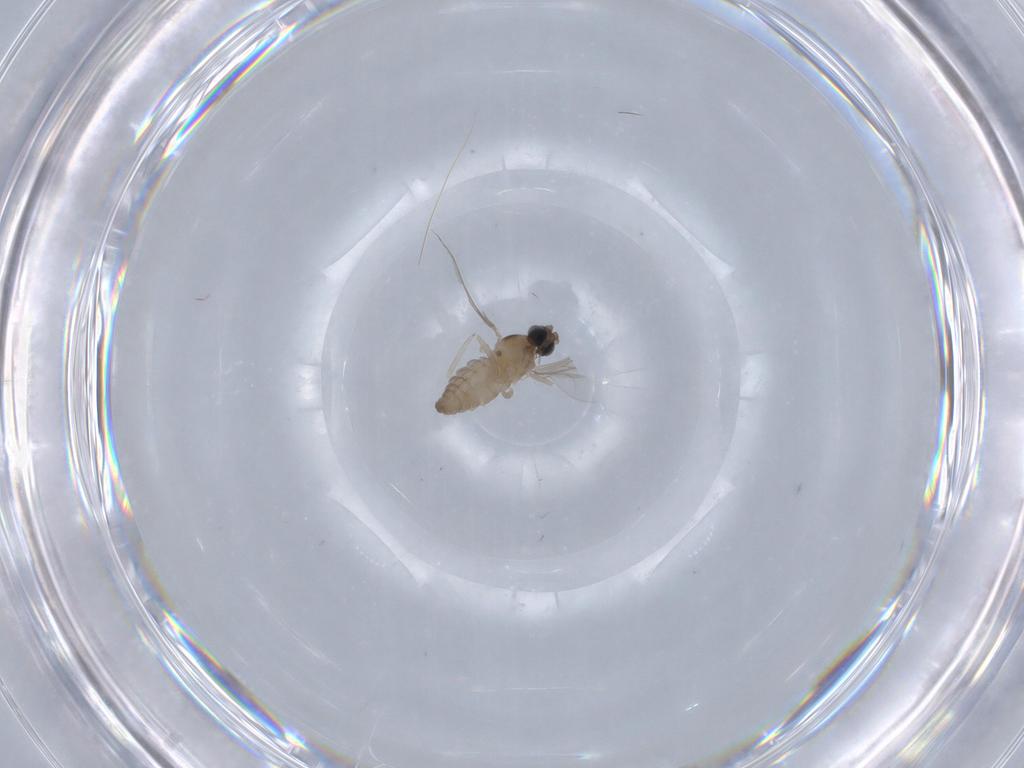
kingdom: Animalia
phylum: Arthropoda
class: Insecta
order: Diptera
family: Cecidomyiidae
